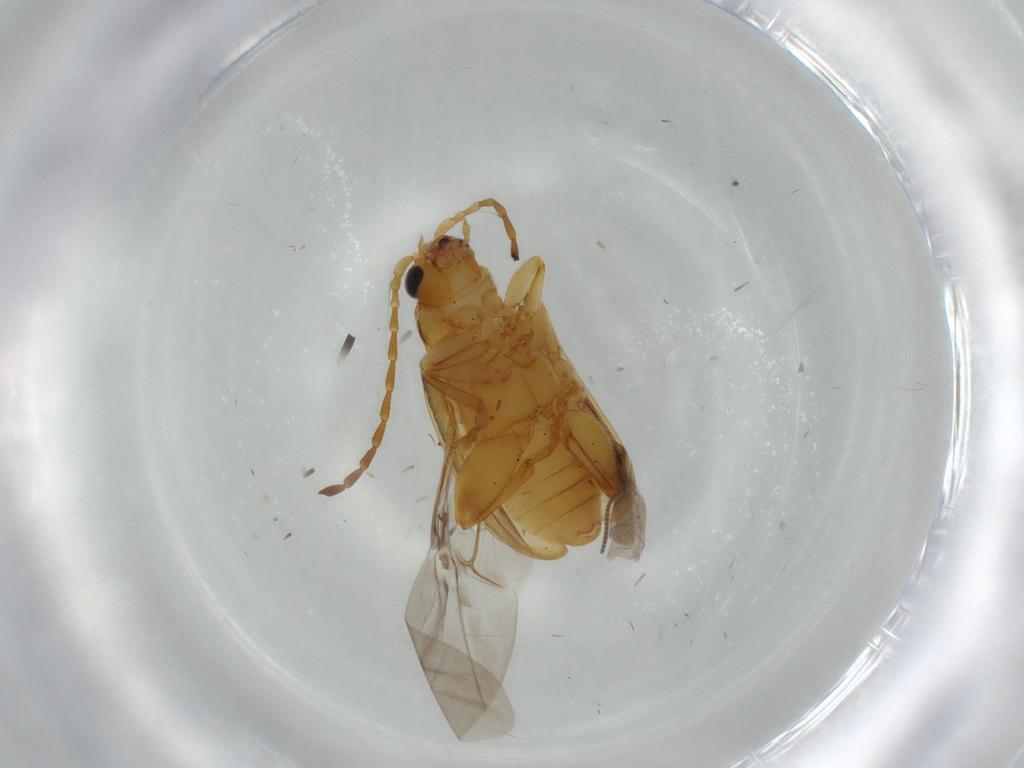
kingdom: Animalia
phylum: Arthropoda
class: Insecta
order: Coleoptera
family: Chrysomelidae
